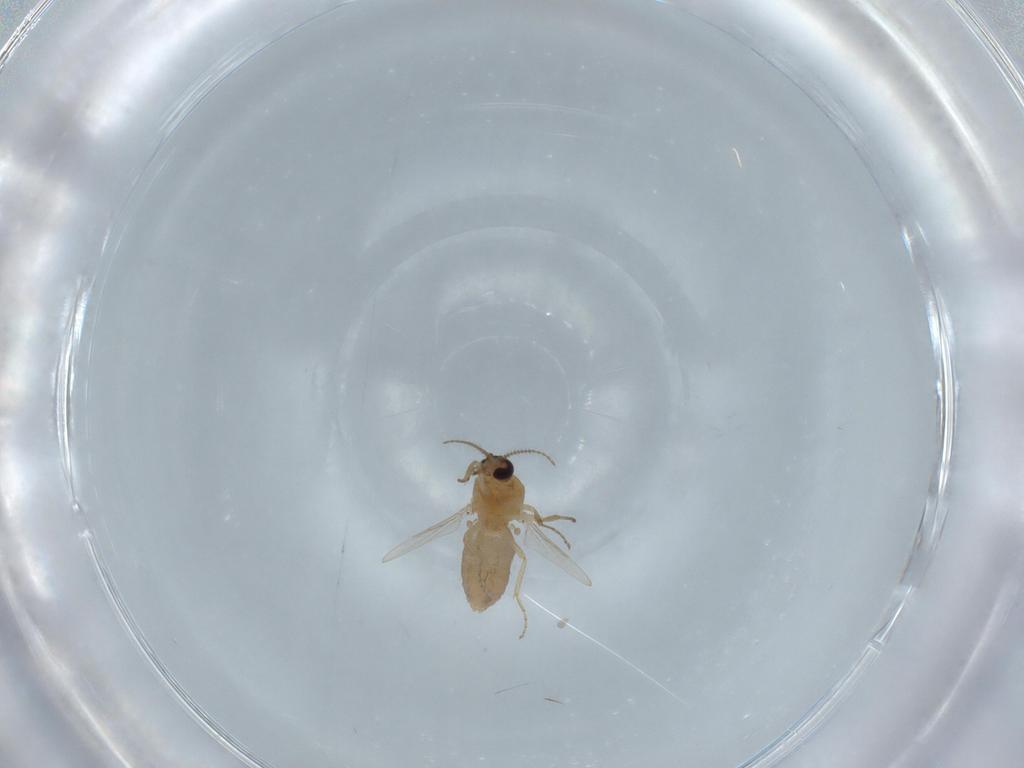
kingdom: Animalia
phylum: Arthropoda
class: Insecta
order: Diptera
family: Ceratopogonidae
